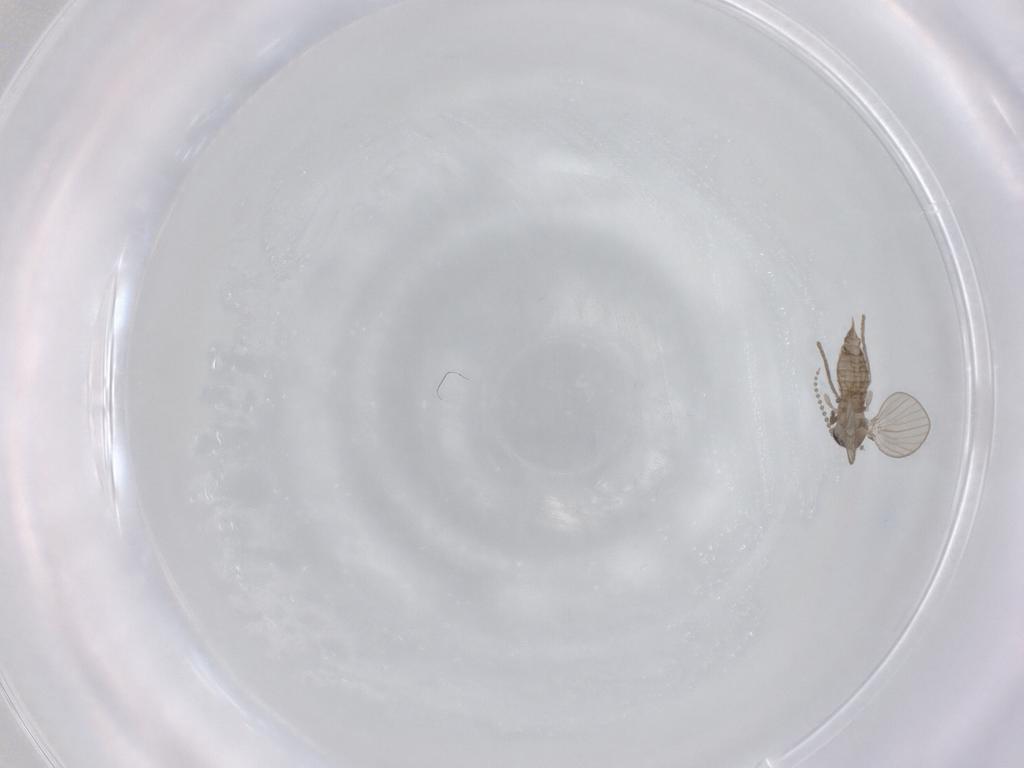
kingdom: Animalia
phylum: Arthropoda
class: Insecta
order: Diptera
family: Psychodidae
